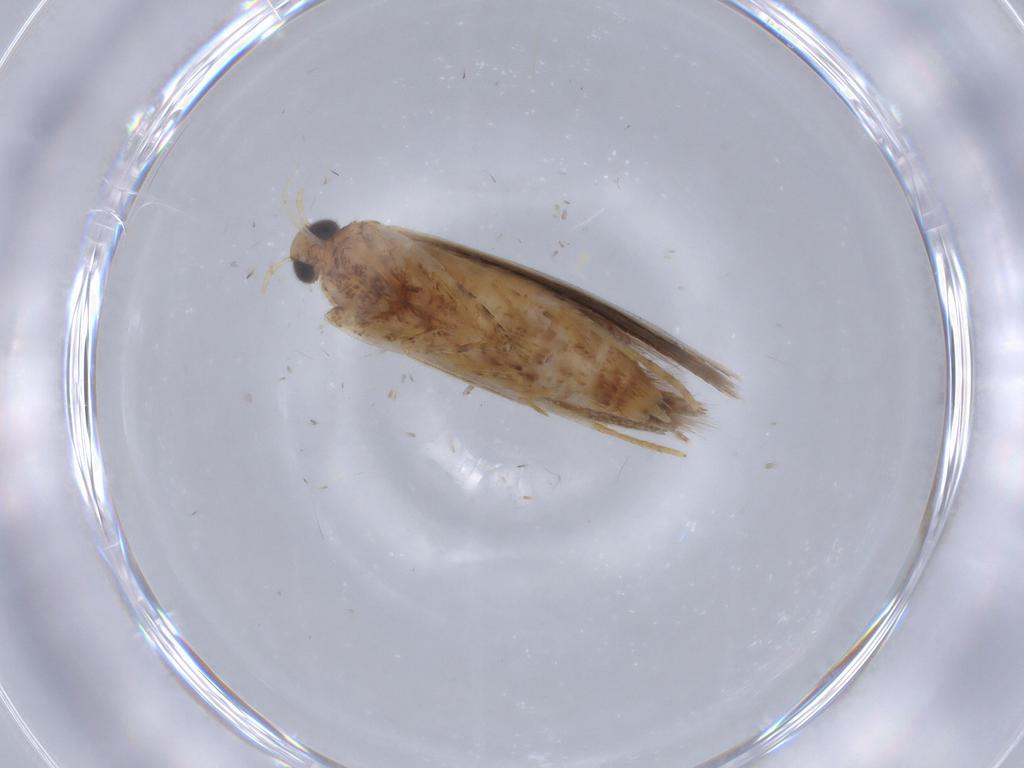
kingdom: Animalia
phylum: Arthropoda
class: Insecta
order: Lepidoptera
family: Gelechiidae
